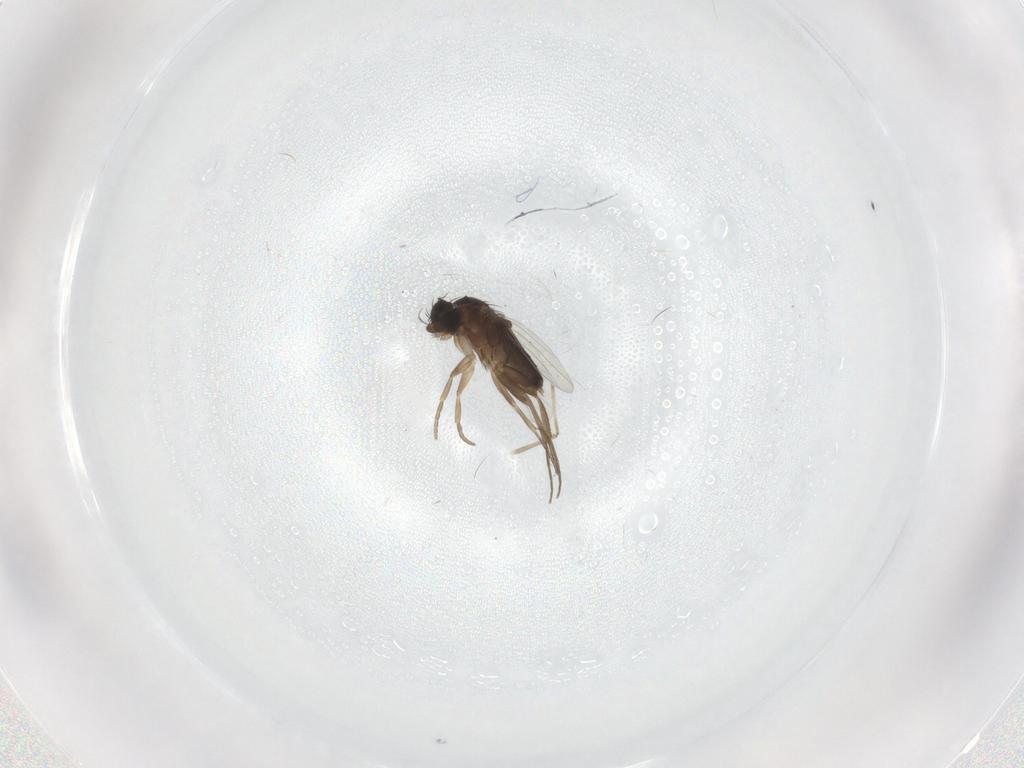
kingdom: Animalia
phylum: Arthropoda
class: Insecta
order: Diptera
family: Phoridae
